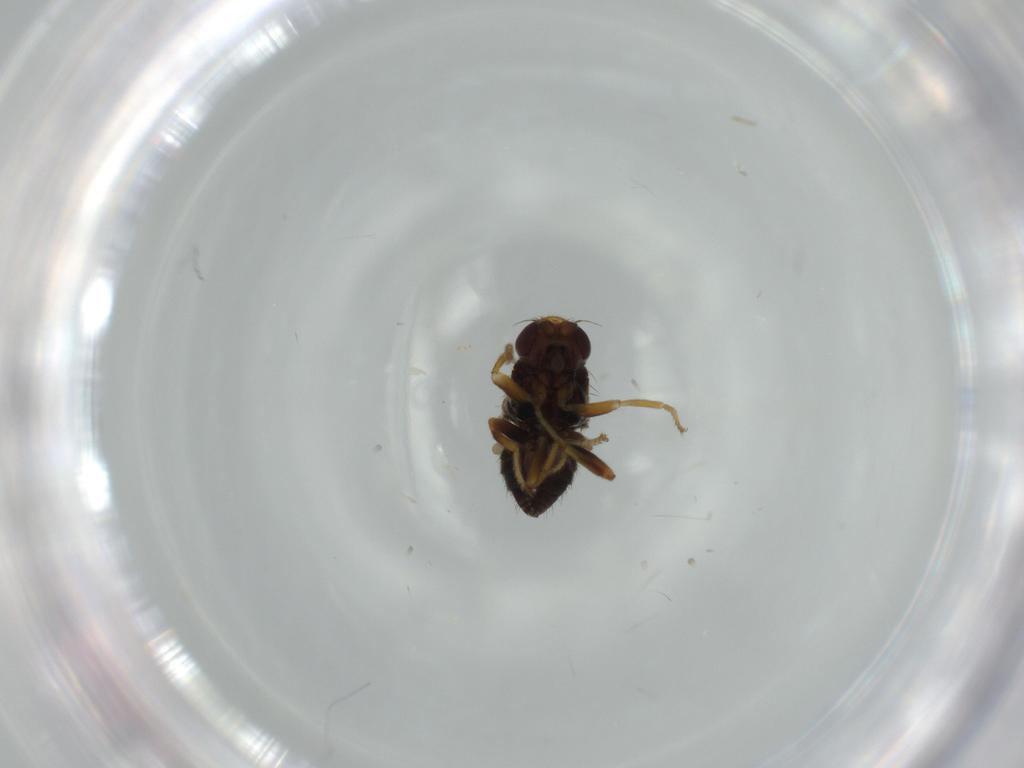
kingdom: Animalia
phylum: Arthropoda
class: Insecta
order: Diptera
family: Chloropidae
